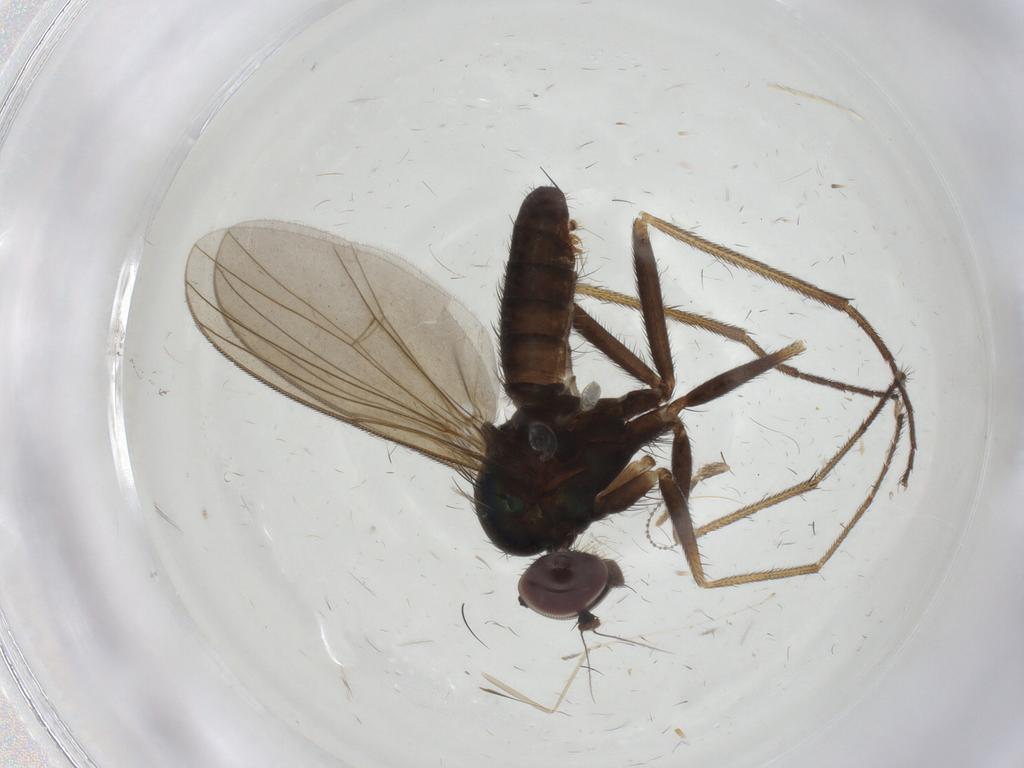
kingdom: Animalia
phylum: Arthropoda
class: Insecta
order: Diptera
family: Dolichopodidae
